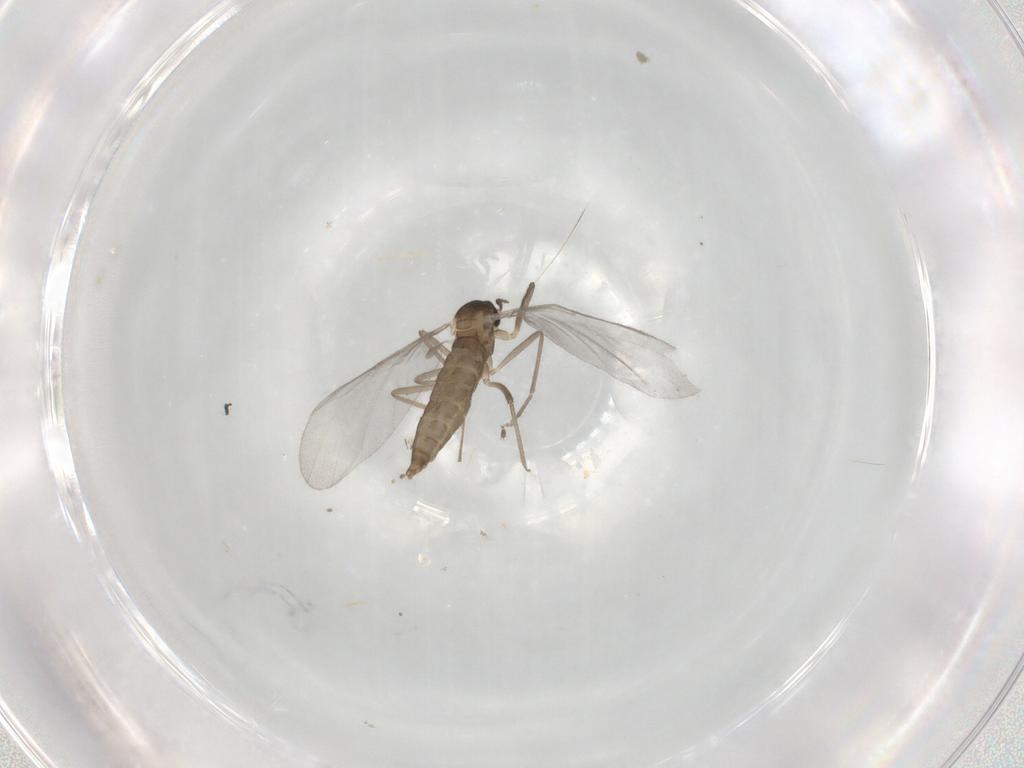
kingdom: Animalia
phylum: Arthropoda
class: Insecta
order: Diptera
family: Cecidomyiidae
